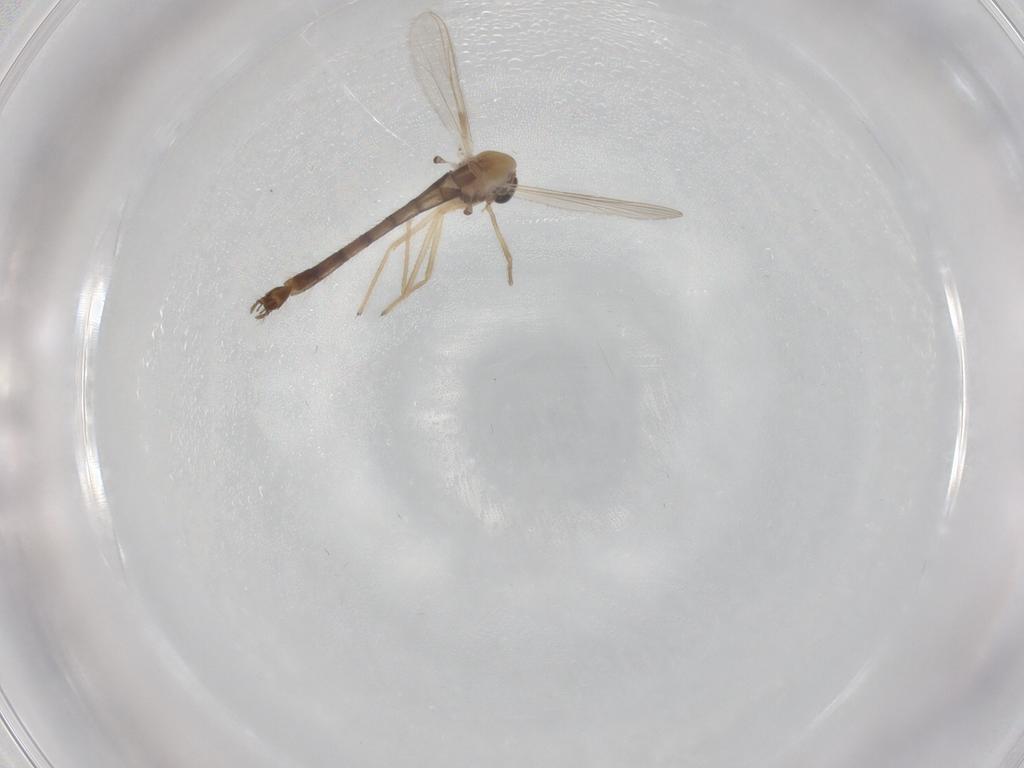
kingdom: Animalia
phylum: Arthropoda
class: Insecta
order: Diptera
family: Chironomidae
